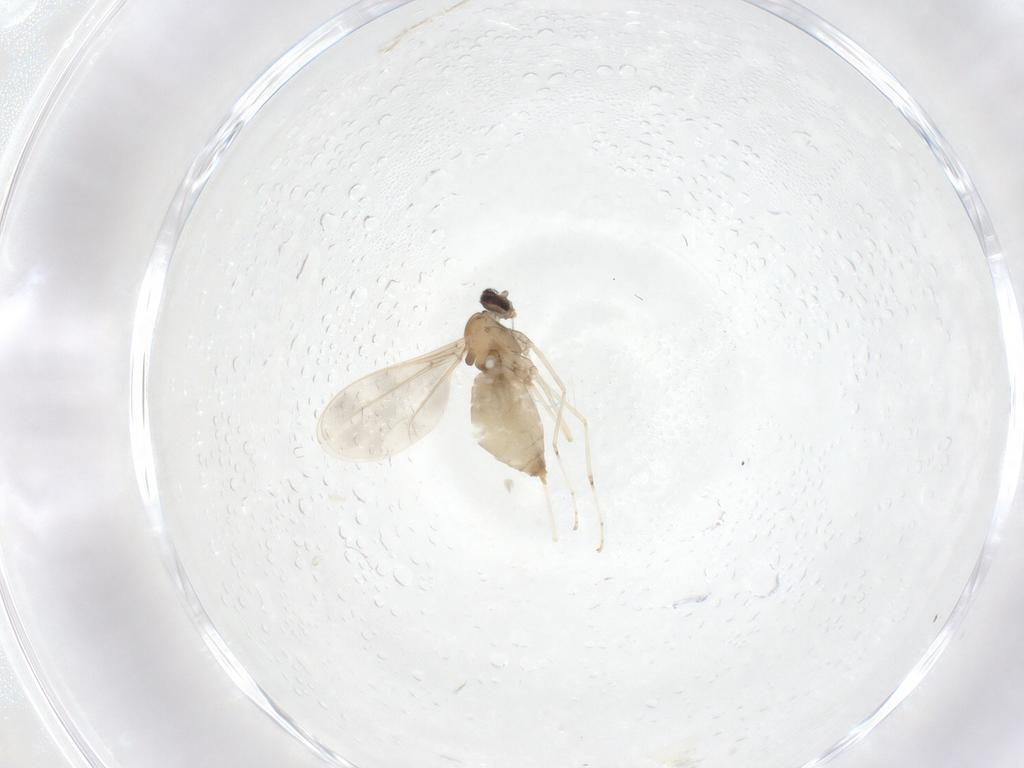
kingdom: Animalia
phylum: Arthropoda
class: Insecta
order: Diptera
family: Cecidomyiidae
